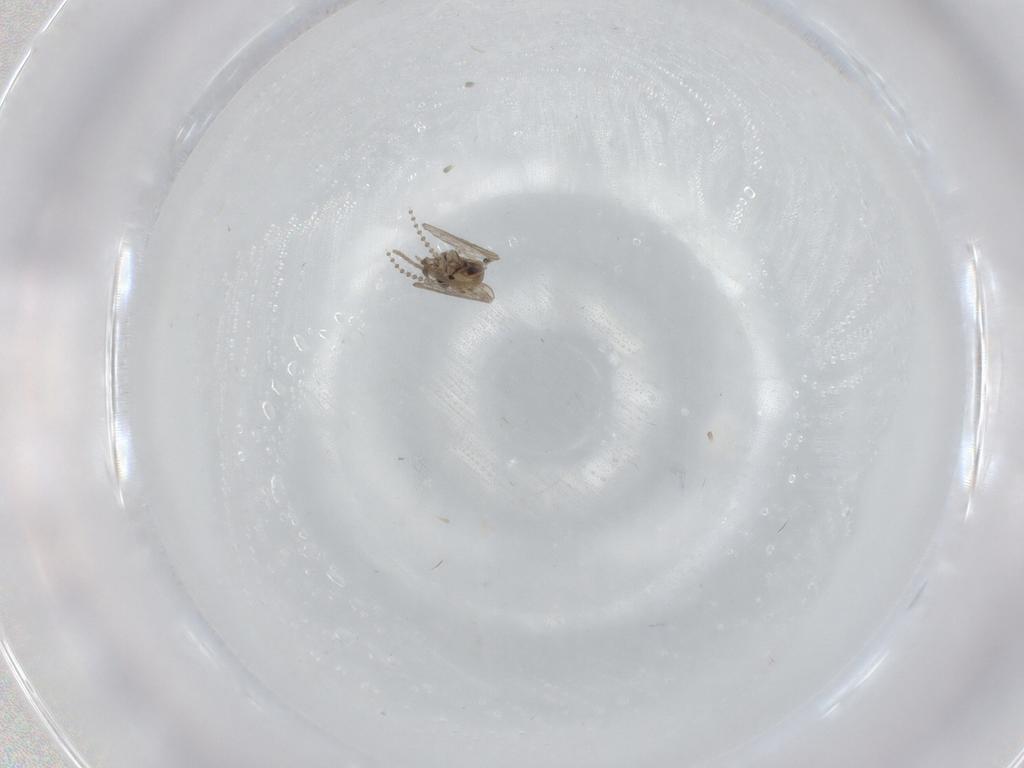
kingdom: Animalia
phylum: Arthropoda
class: Insecta
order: Diptera
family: Psychodidae
